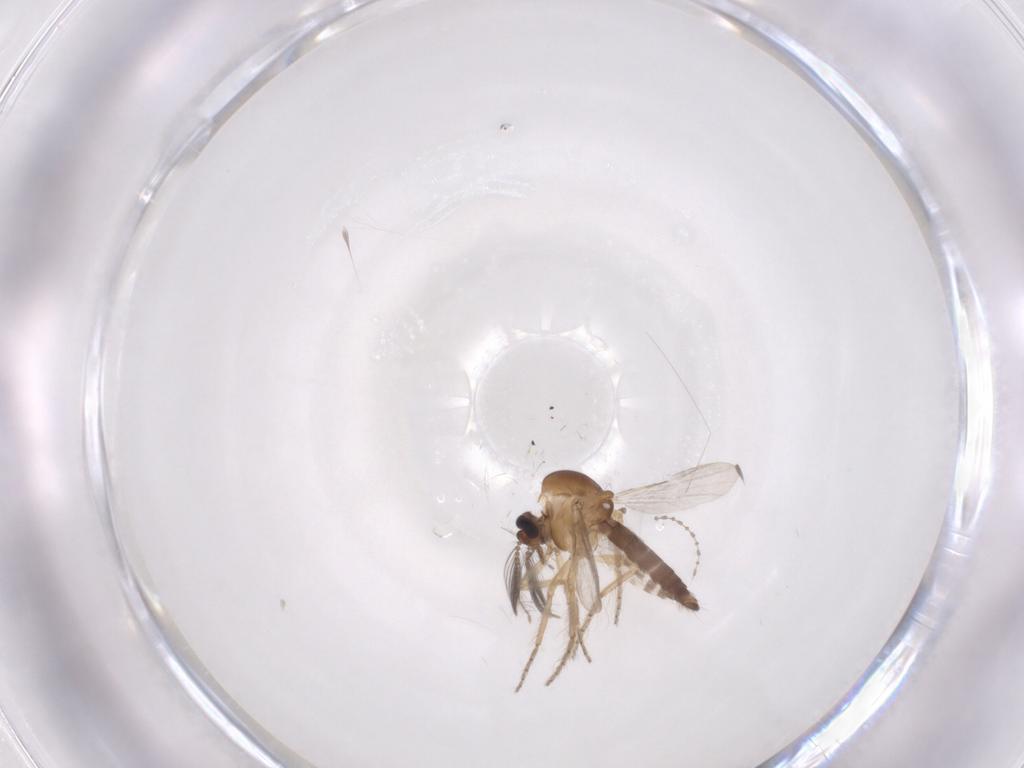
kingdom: Animalia
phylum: Arthropoda
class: Insecta
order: Diptera
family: Ceratopogonidae
